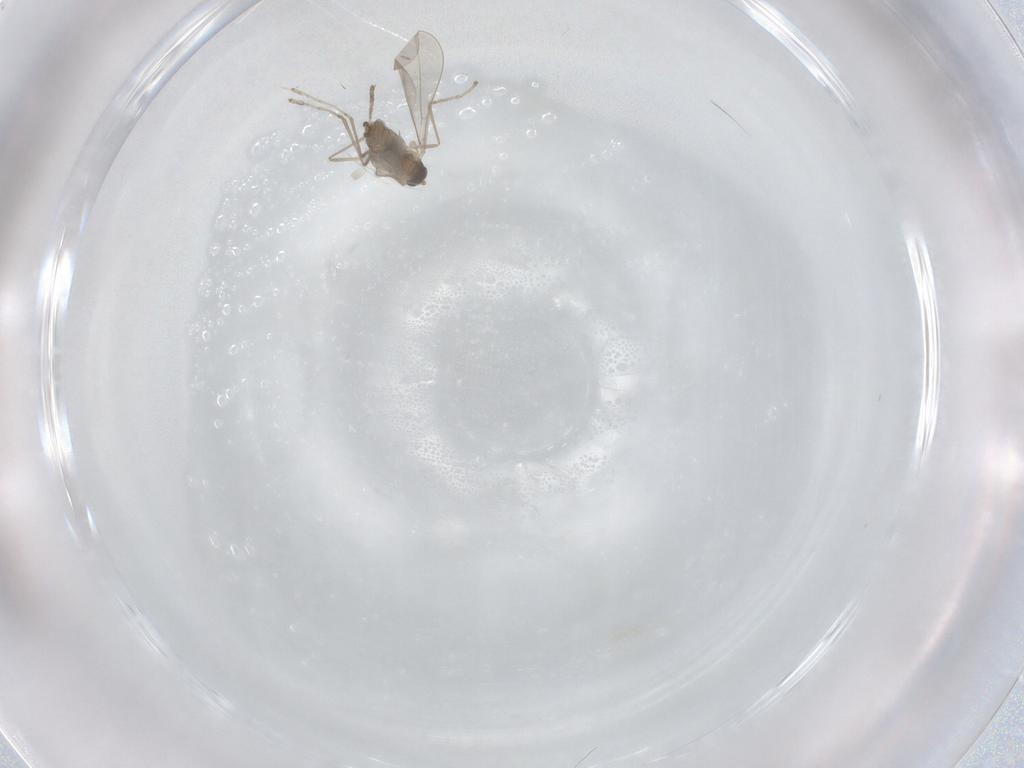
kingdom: Animalia
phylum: Arthropoda
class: Insecta
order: Diptera
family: Cecidomyiidae
